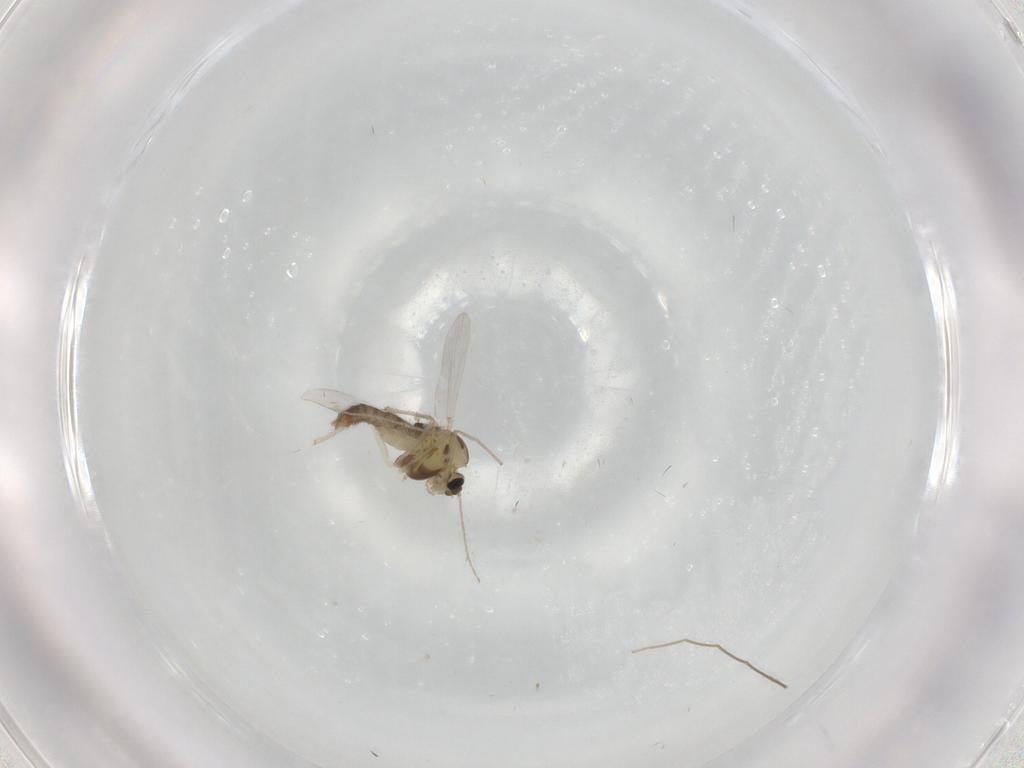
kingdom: Animalia
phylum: Arthropoda
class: Insecta
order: Diptera
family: Chironomidae
